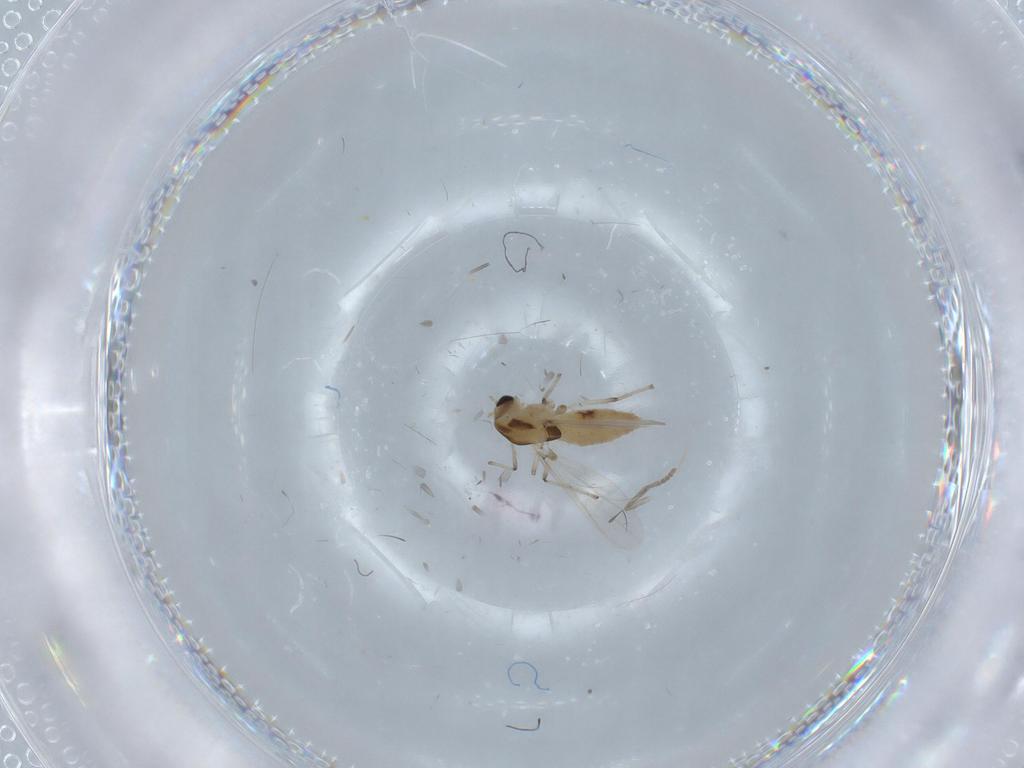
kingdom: Animalia
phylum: Arthropoda
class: Insecta
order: Diptera
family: Chironomidae
